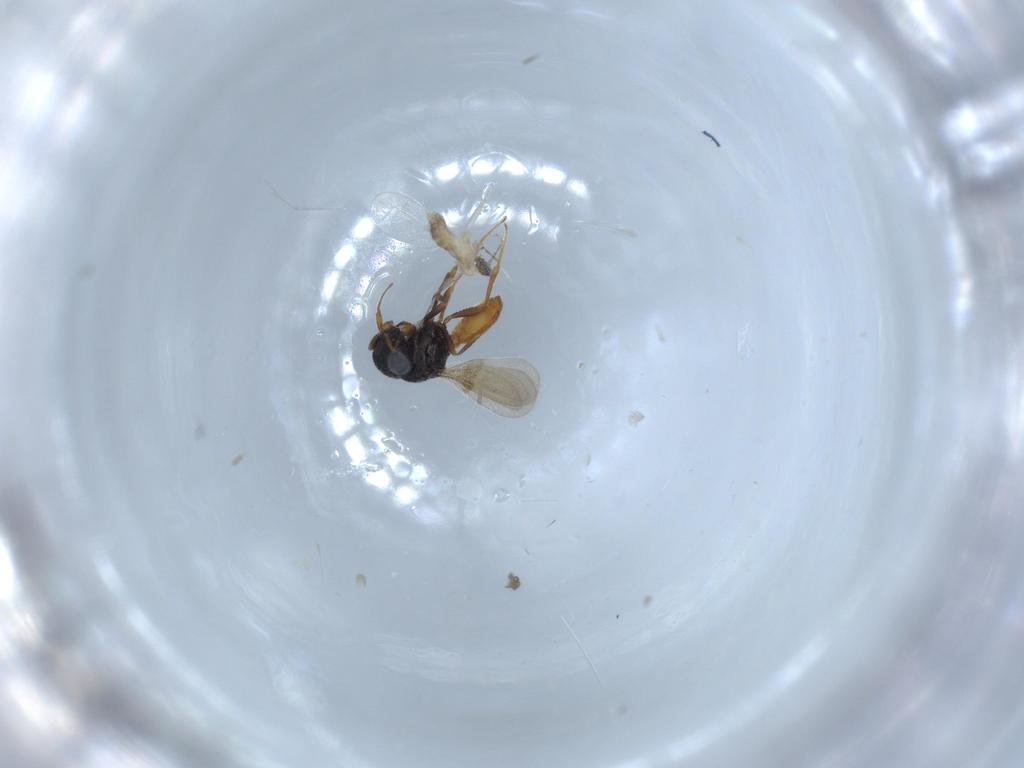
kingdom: Animalia
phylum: Arthropoda
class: Insecta
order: Diptera
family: Cecidomyiidae
